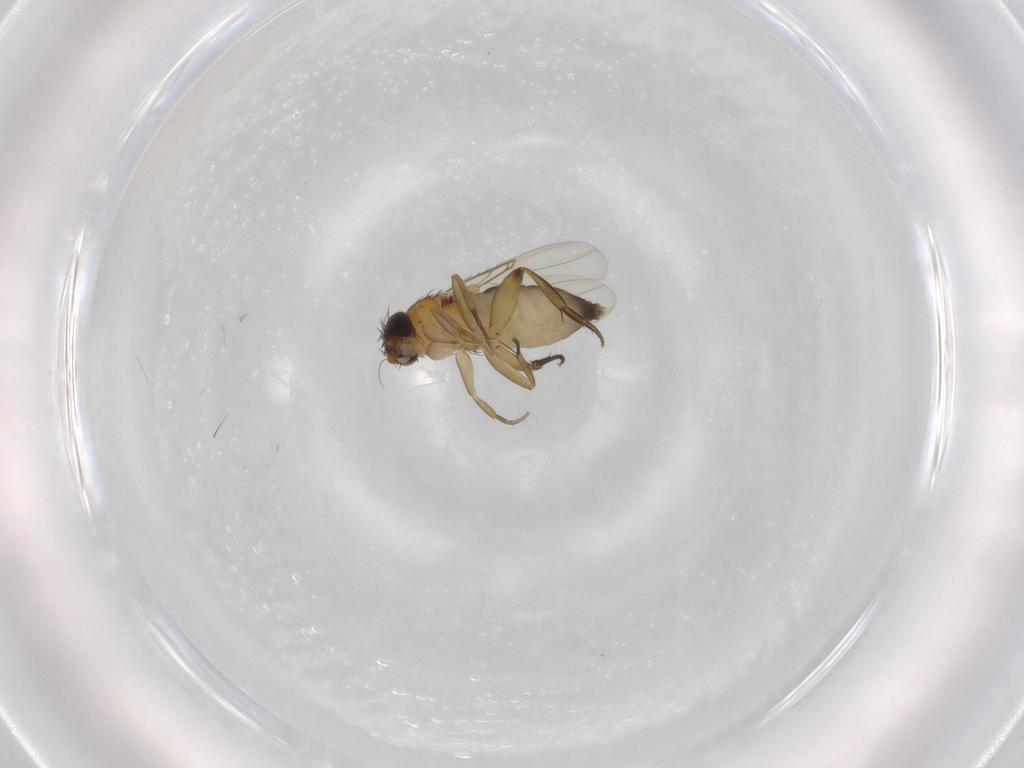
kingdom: Animalia
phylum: Arthropoda
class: Insecta
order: Diptera
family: Phoridae
